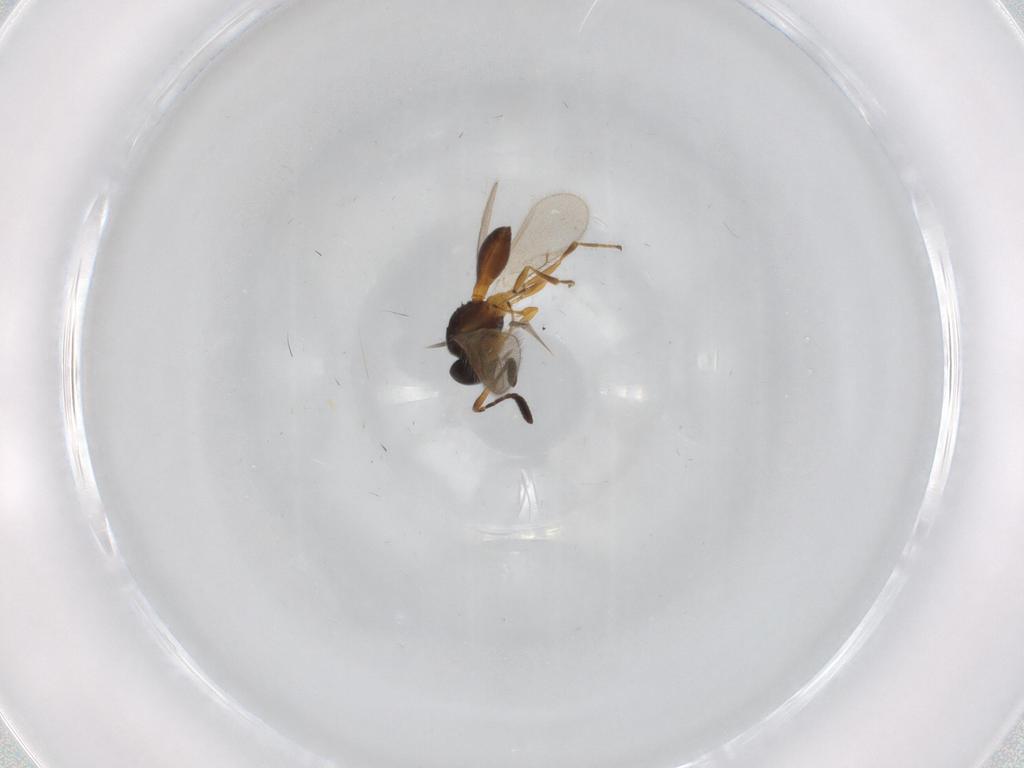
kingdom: Animalia
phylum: Arthropoda
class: Insecta
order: Hymenoptera
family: Scelionidae
